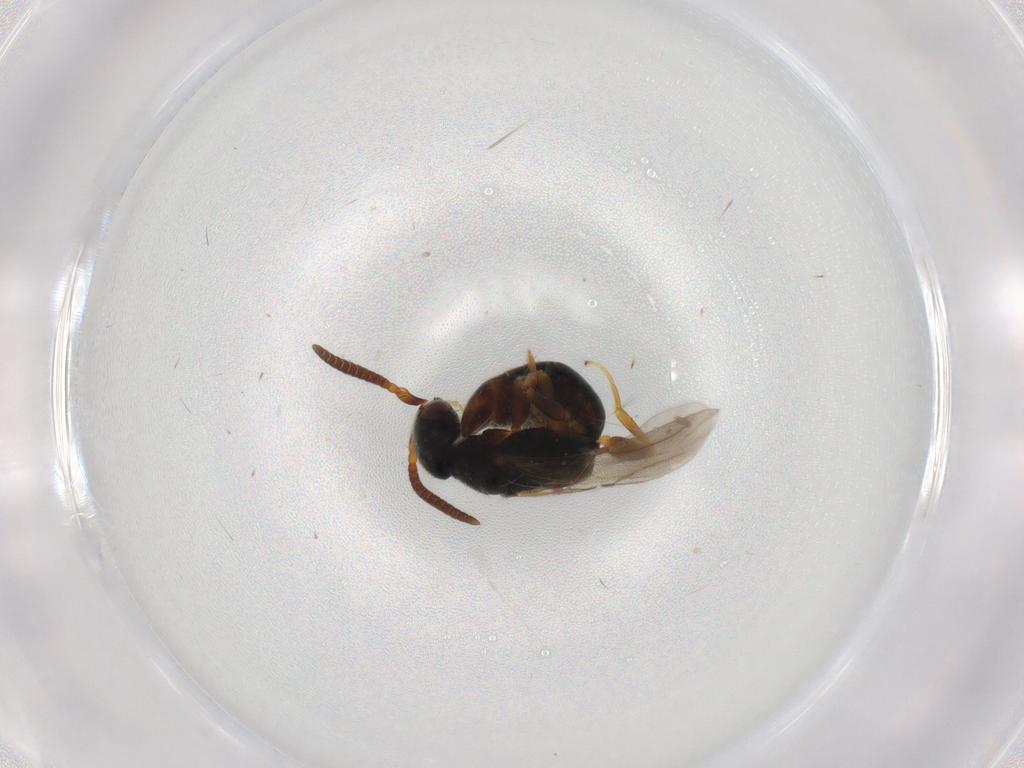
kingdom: Animalia
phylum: Arthropoda
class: Insecta
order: Hymenoptera
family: Bethylidae
